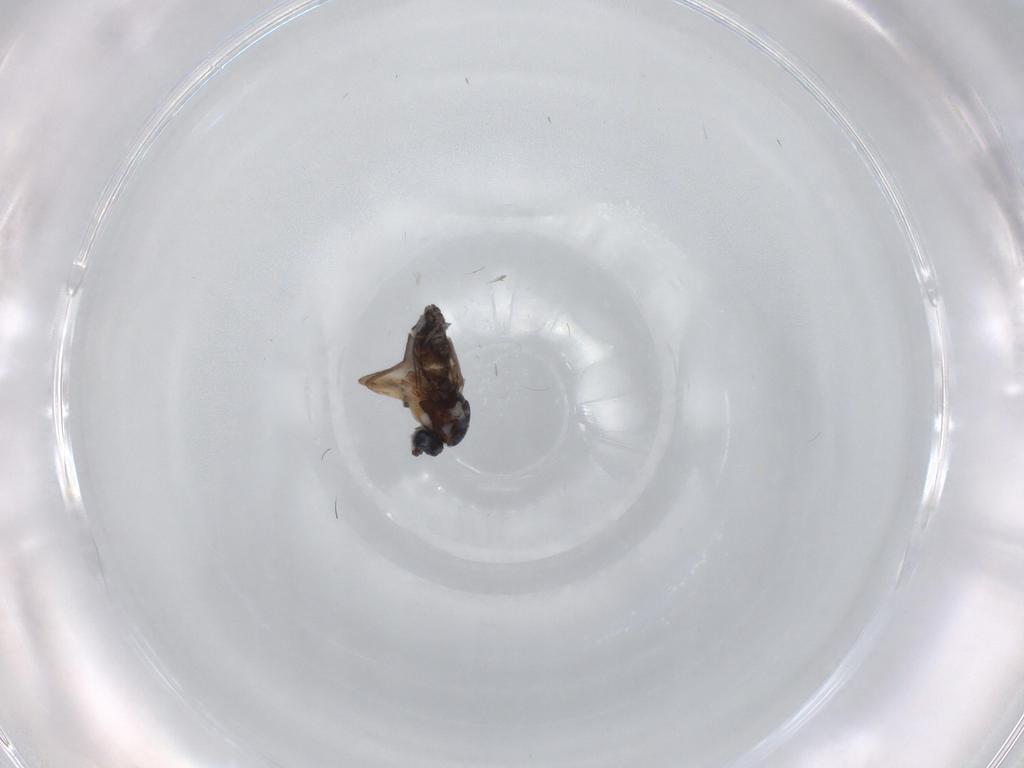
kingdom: Animalia
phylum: Arthropoda
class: Insecta
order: Diptera
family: Sciaridae
